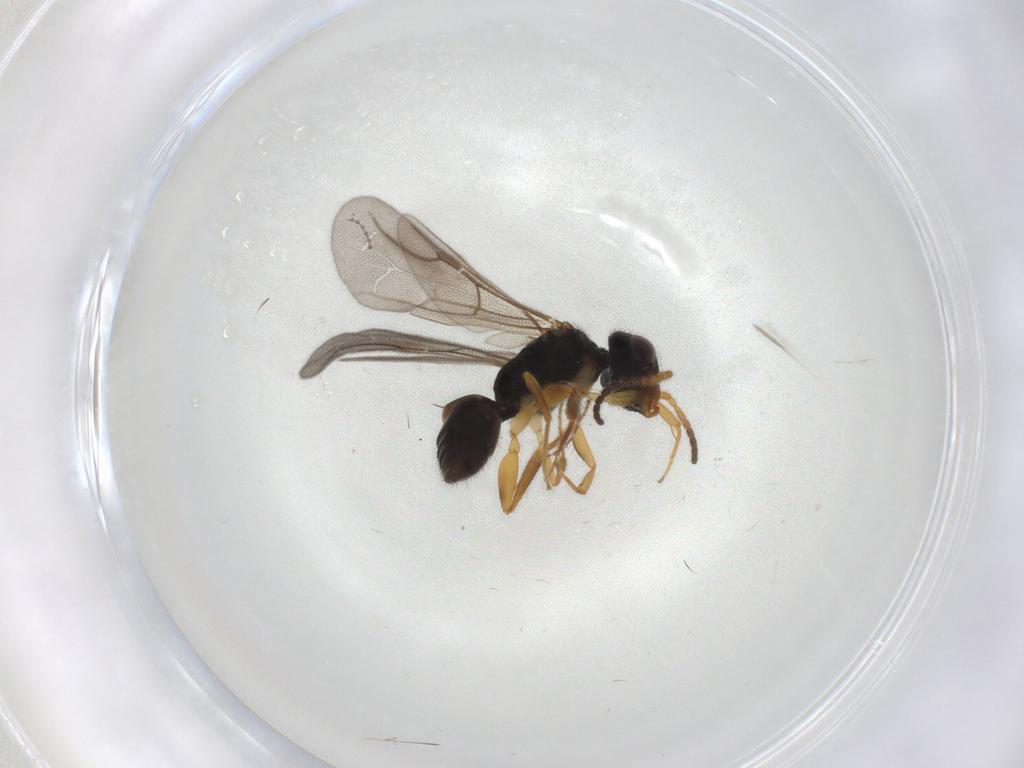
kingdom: Animalia
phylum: Arthropoda
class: Insecta
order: Hymenoptera
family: Bethylidae
